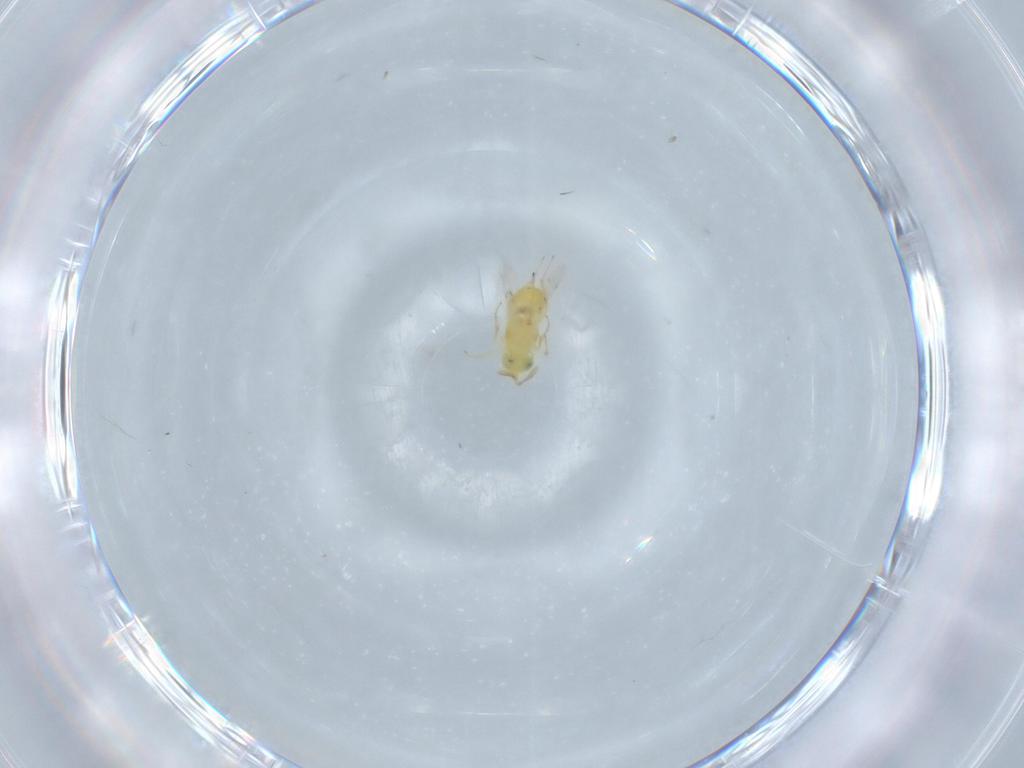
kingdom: Animalia
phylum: Arthropoda
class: Insecta
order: Hymenoptera
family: Encyrtidae
